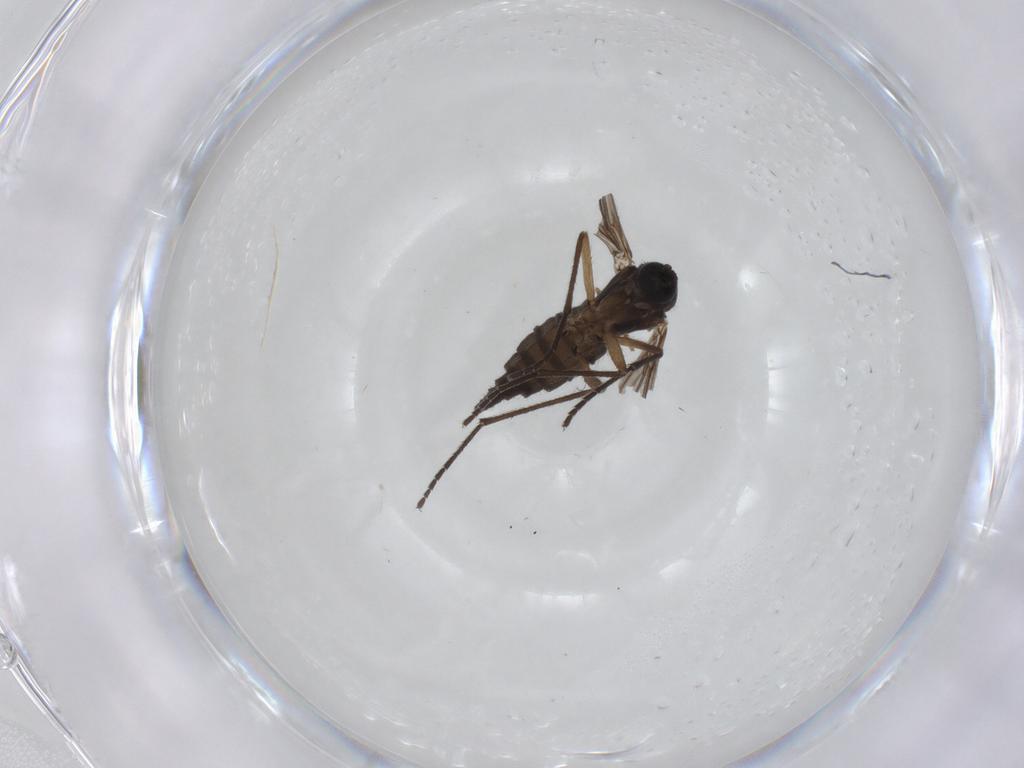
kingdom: Animalia
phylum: Arthropoda
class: Insecta
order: Diptera
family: Sciaridae
